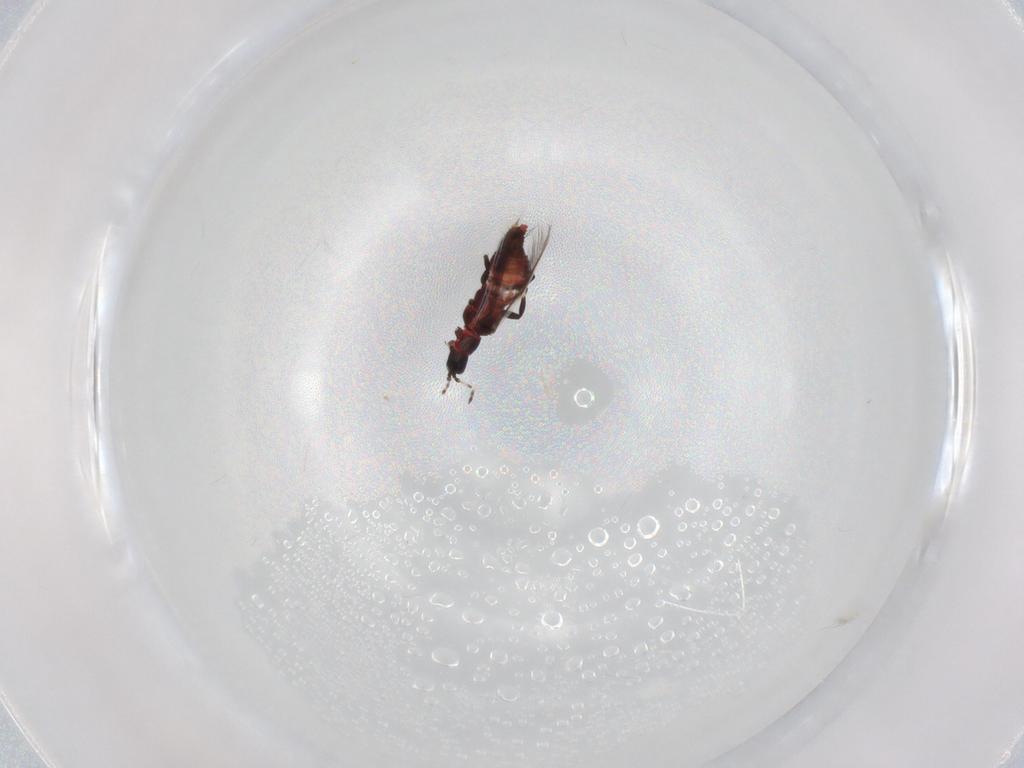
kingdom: Animalia
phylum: Arthropoda
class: Insecta
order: Thysanoptera
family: Aeolothripidae
